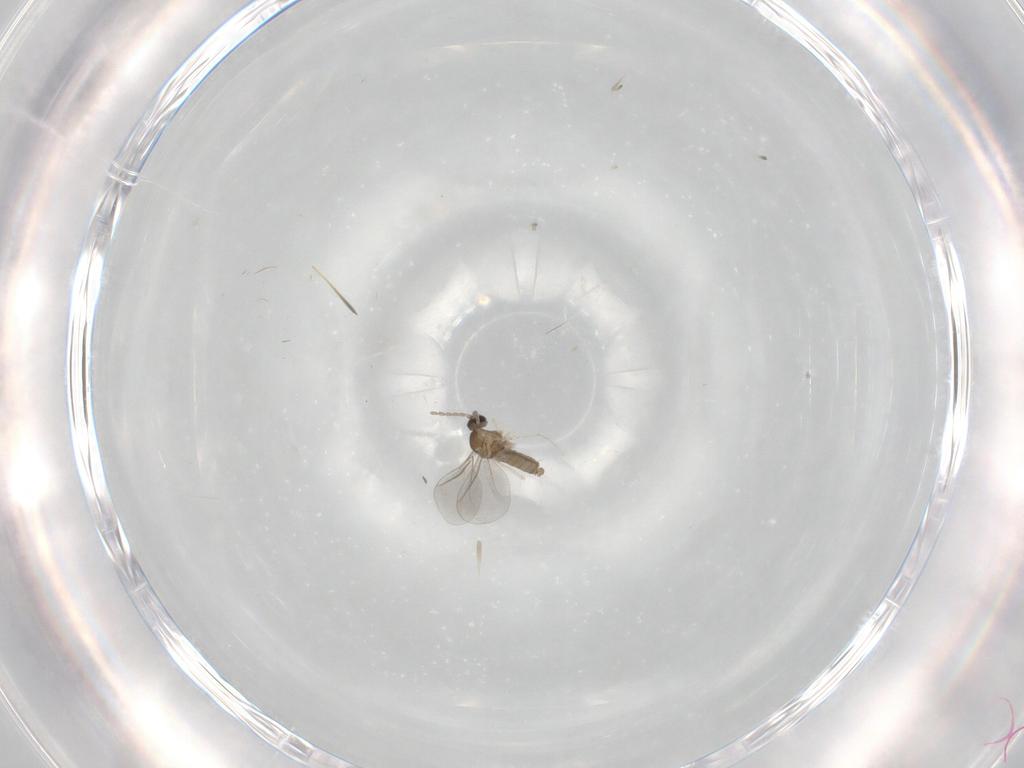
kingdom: Animalia
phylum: Arthropoda
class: Insecta
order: Diptera
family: Cecidomyiidae
